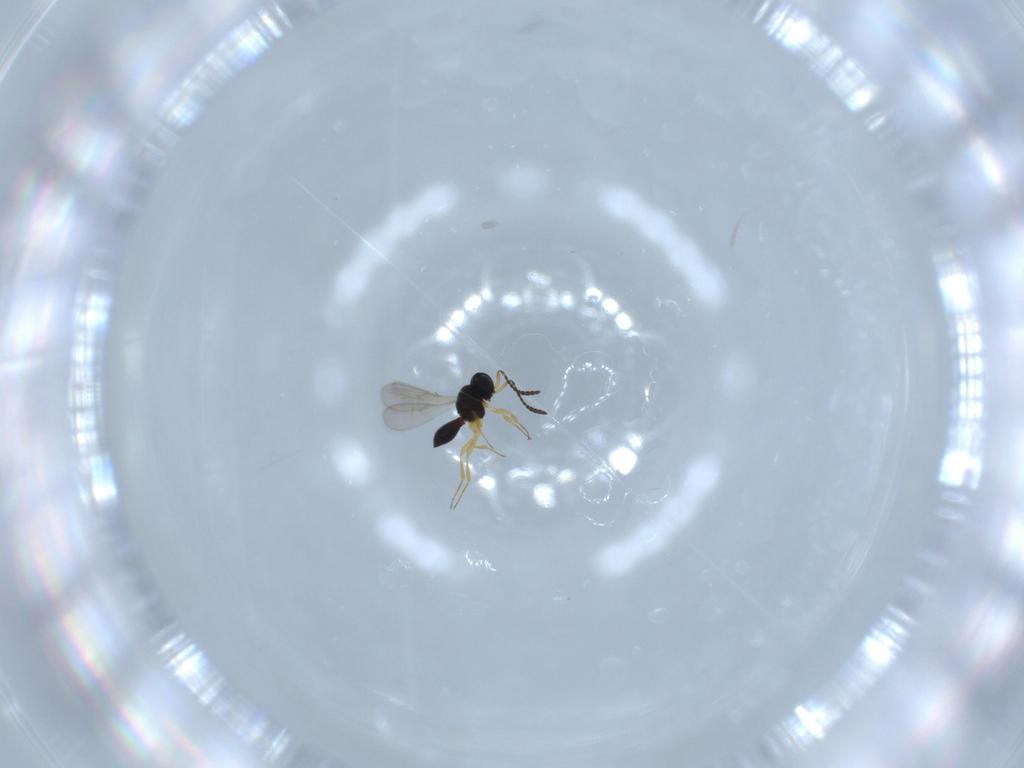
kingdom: Animalia
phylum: Arthropoda
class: Insecta
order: Hymenoptera
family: Scelionidae
